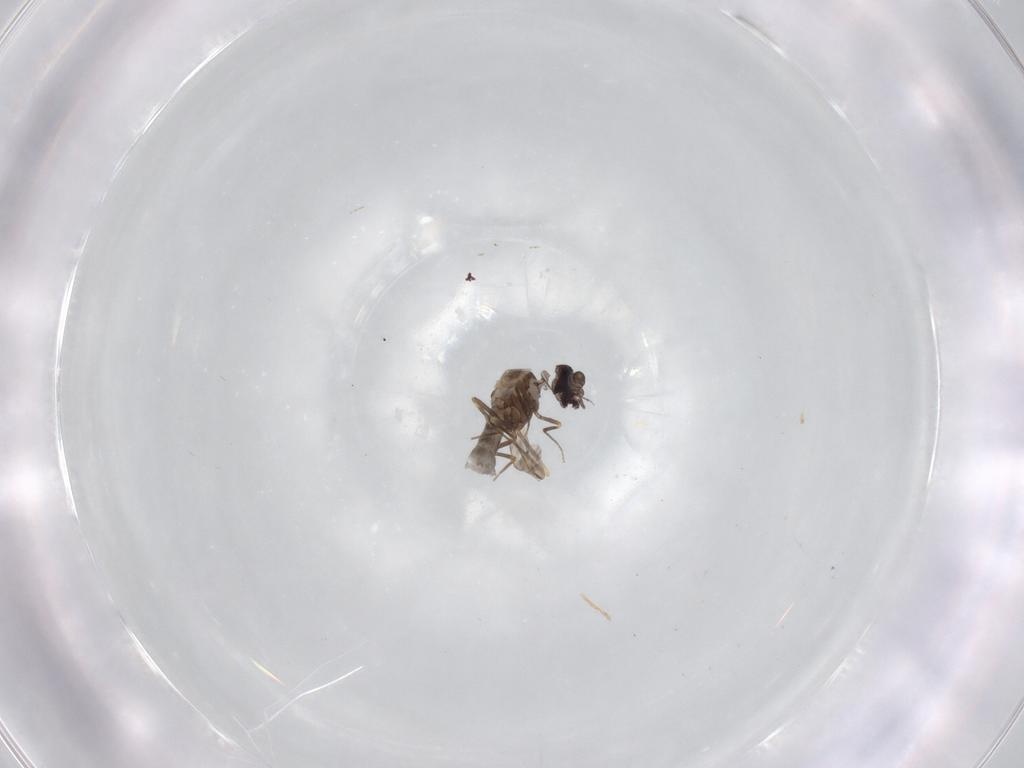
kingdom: Animalia
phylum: Arthropoda
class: Insecta
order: Diptera
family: Ceratopogonidae
